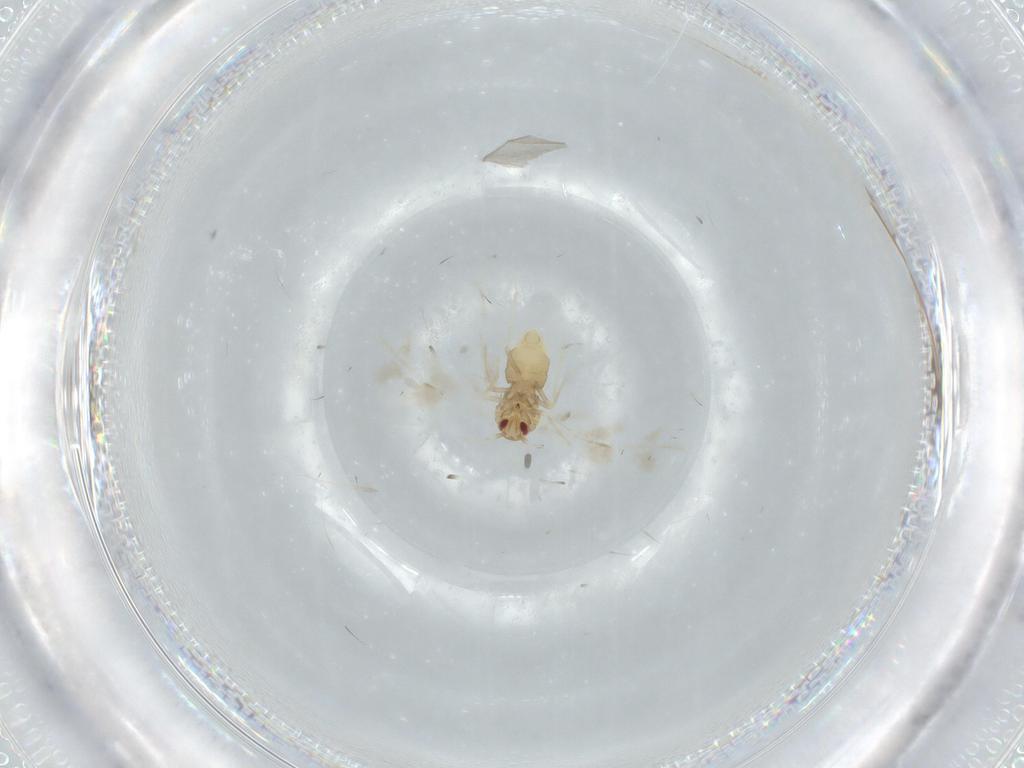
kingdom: Animalia
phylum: Arthropoda
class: Insecta
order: Hemiptera
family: Aleyrodidae
